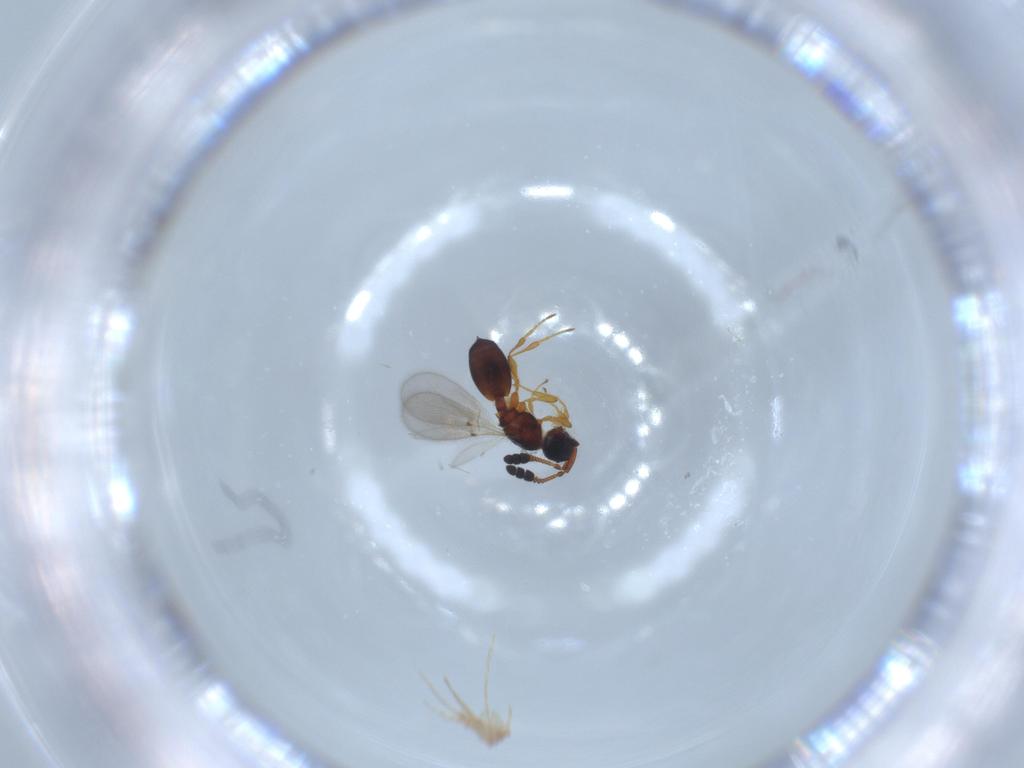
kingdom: Animalia
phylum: Arthropoda
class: Insecta
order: Hymenoptera
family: Diapriidae
